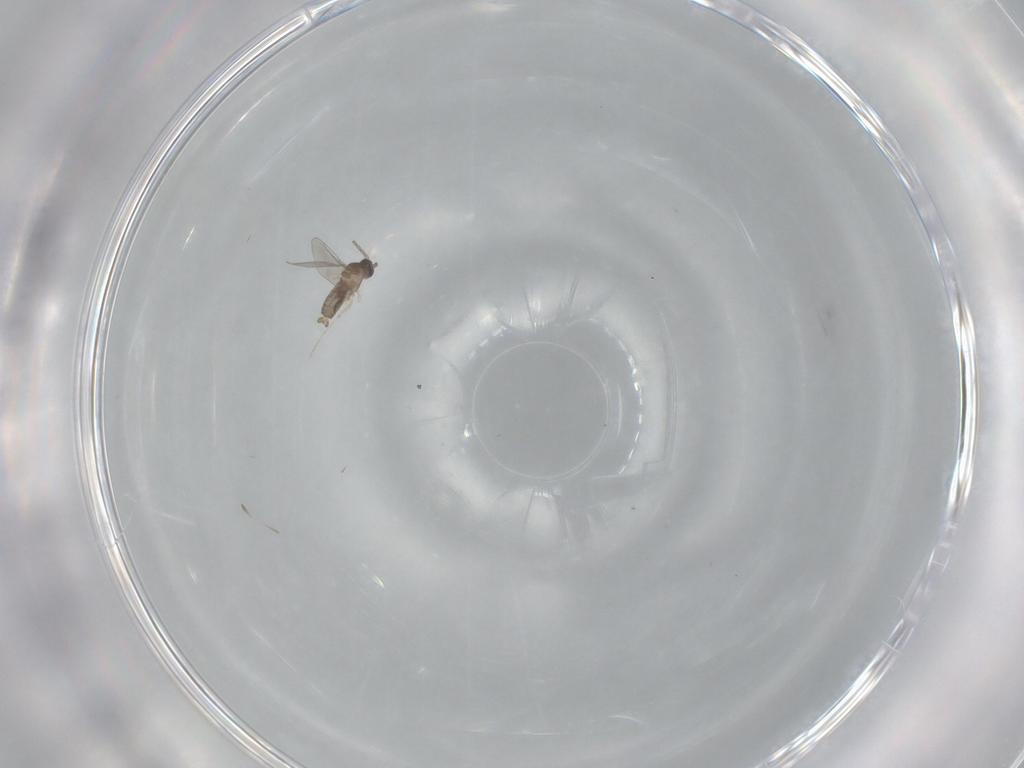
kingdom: Animalia
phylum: Arthropoda
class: Insecta
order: Diptera
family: Cecidomyiidae
